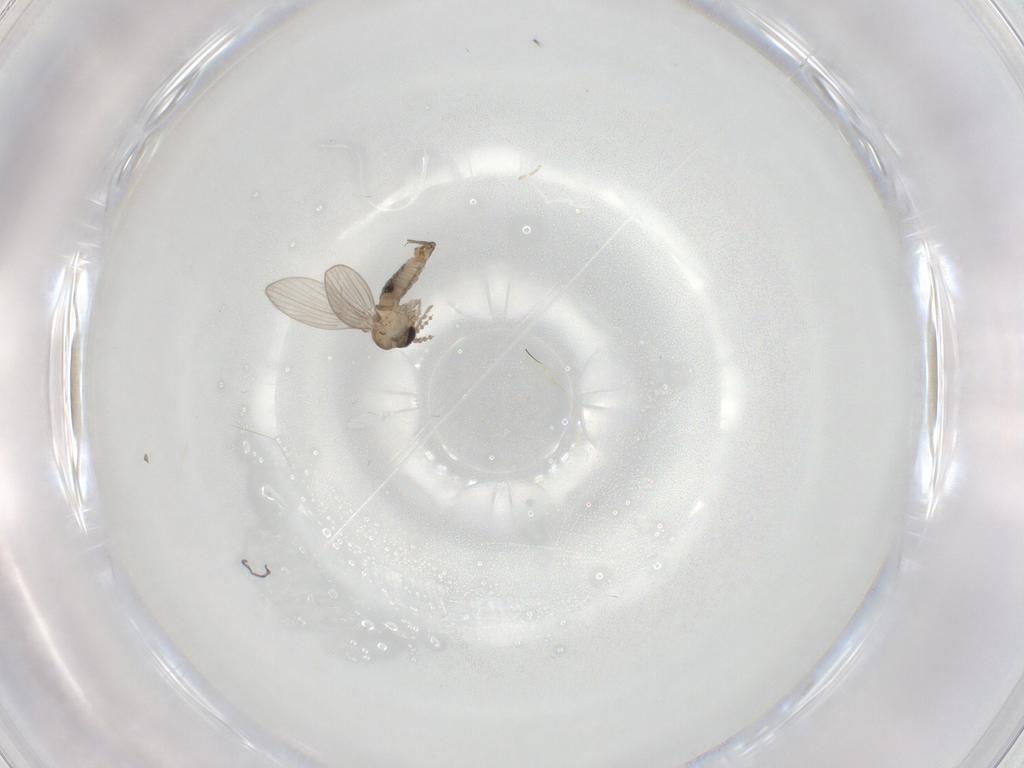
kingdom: Animalia
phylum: Arthropoda
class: Insecta
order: Diptera
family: Psychodidae
